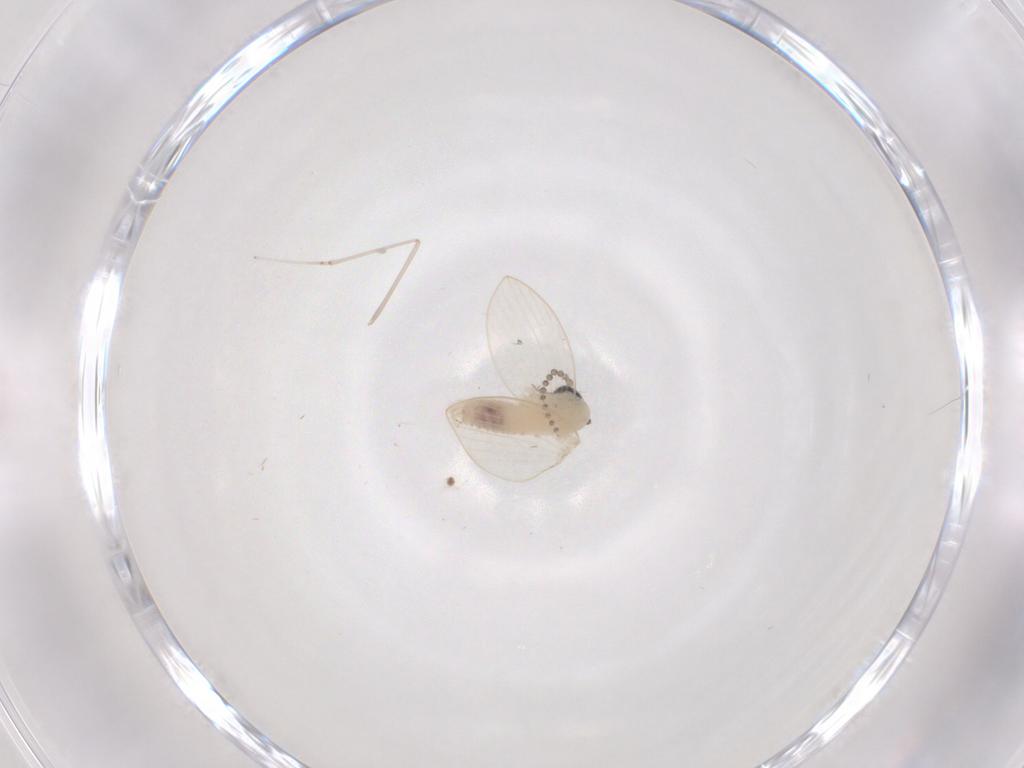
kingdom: Animalia
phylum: Arthropoda
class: Insecta
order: Diptera
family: Psychodidae
